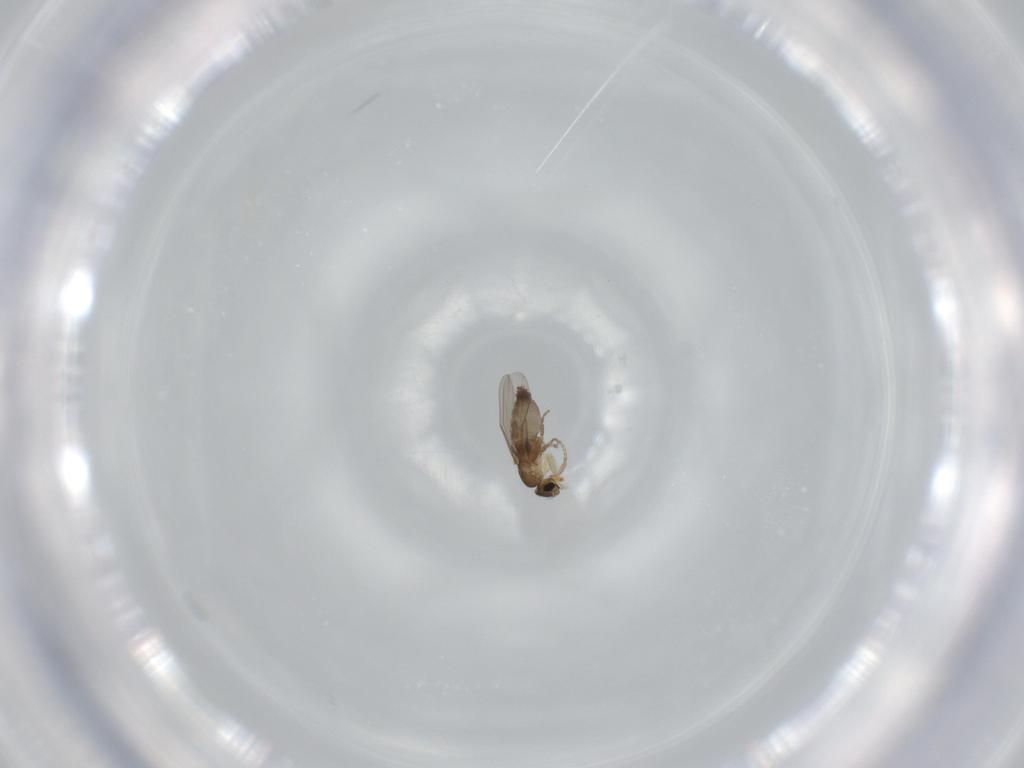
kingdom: Animalia
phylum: Arthropoda
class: Insecta
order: Diptera
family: Phoridae
